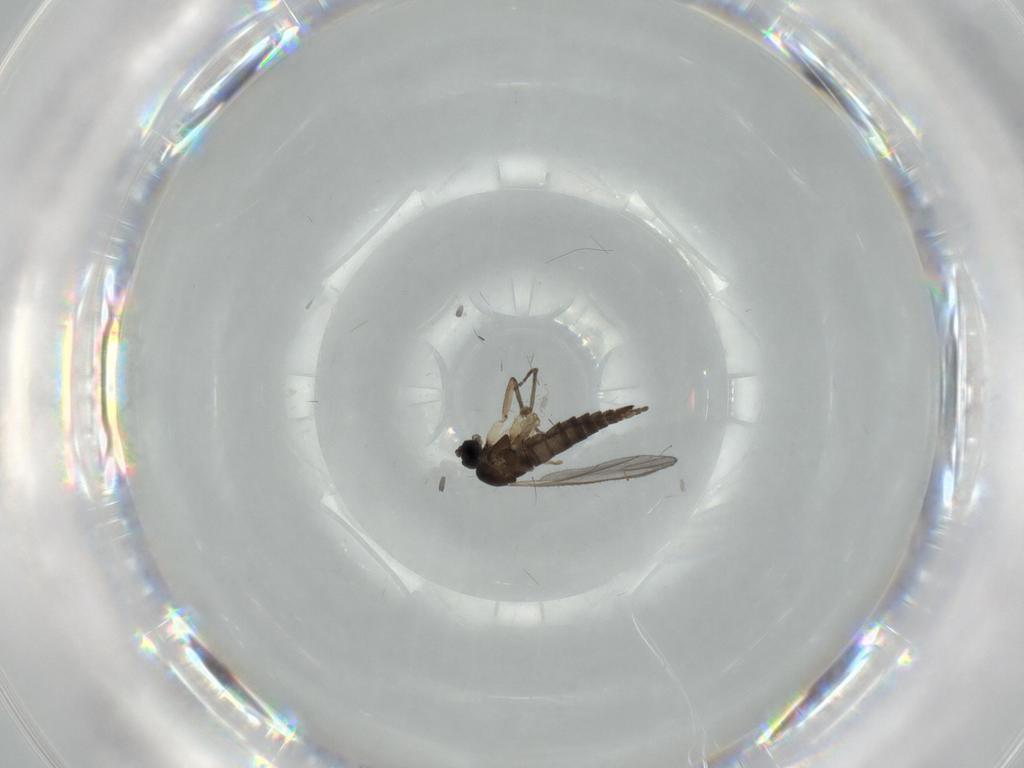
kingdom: Animalia
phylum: Arthropoda
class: Insecta
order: Diptera
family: Sciaridae
